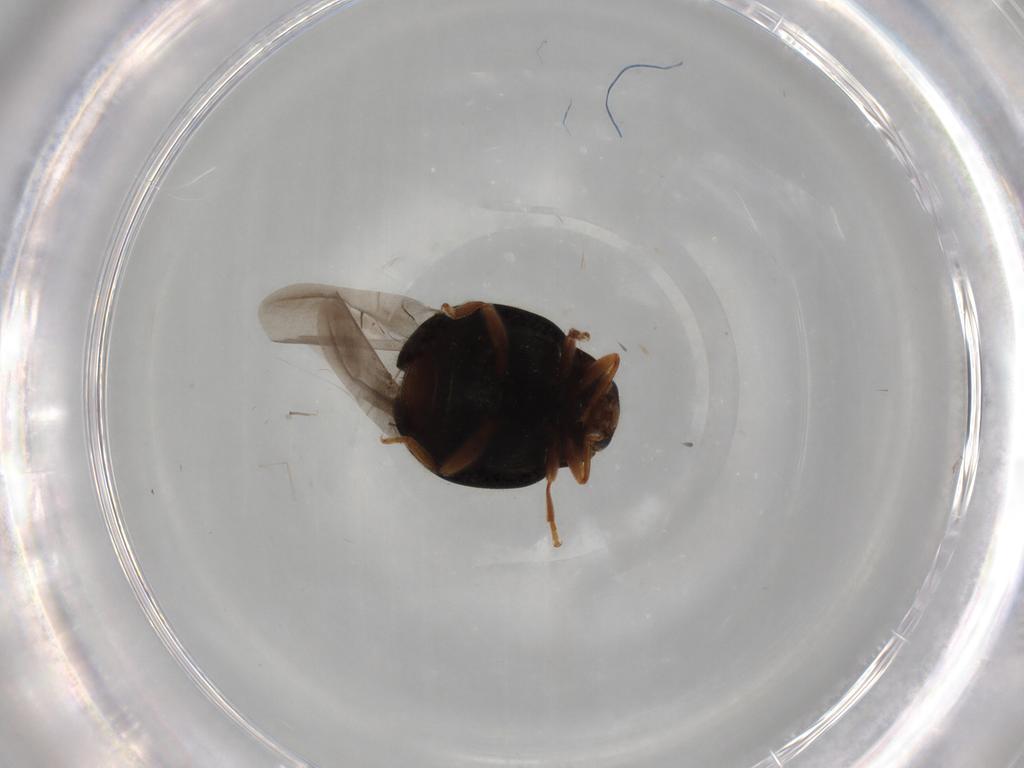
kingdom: Animalia
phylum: Arthropoda
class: Insecta
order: Coleoptera
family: Coccinellidae
